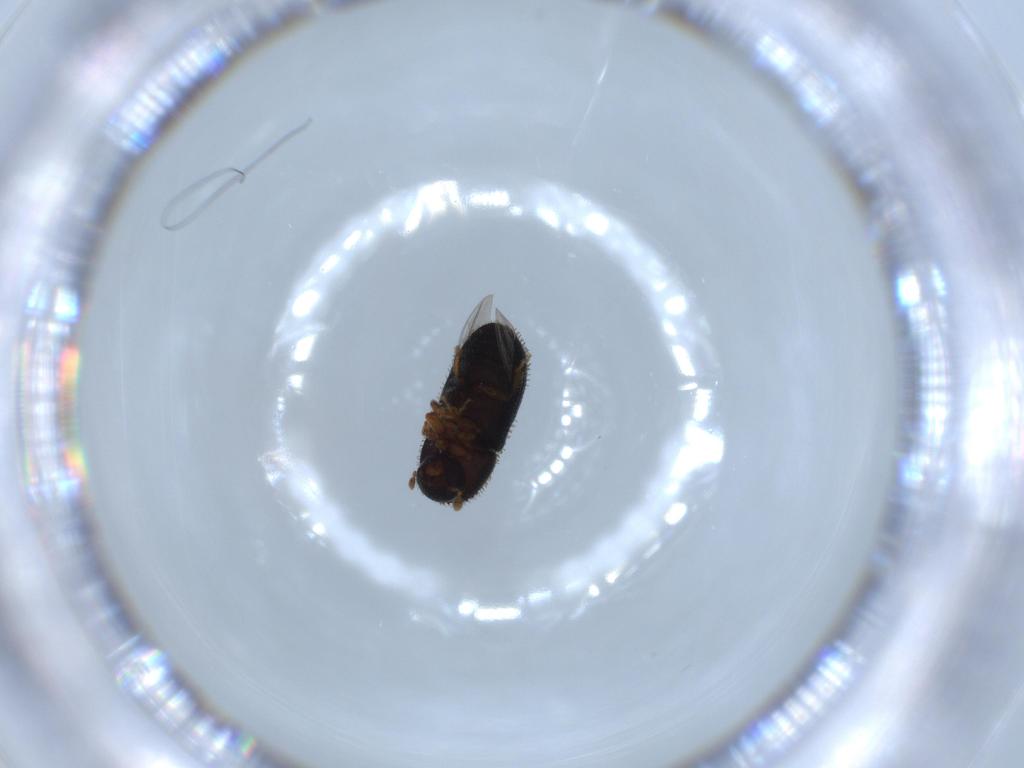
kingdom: Animalia
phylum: Arthropoda
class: Insecta
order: Coleoptera
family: Curculionidae
